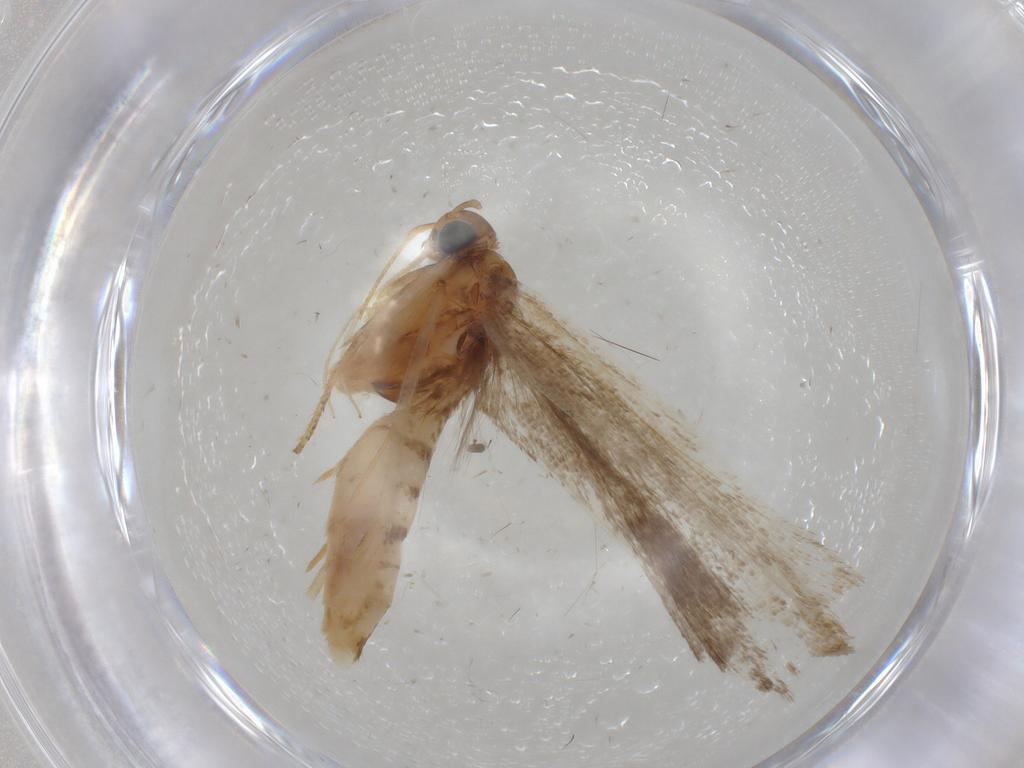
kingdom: Animalia
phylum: Arthropoda
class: Insecta
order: Lepidoptera
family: Gelechiidae
